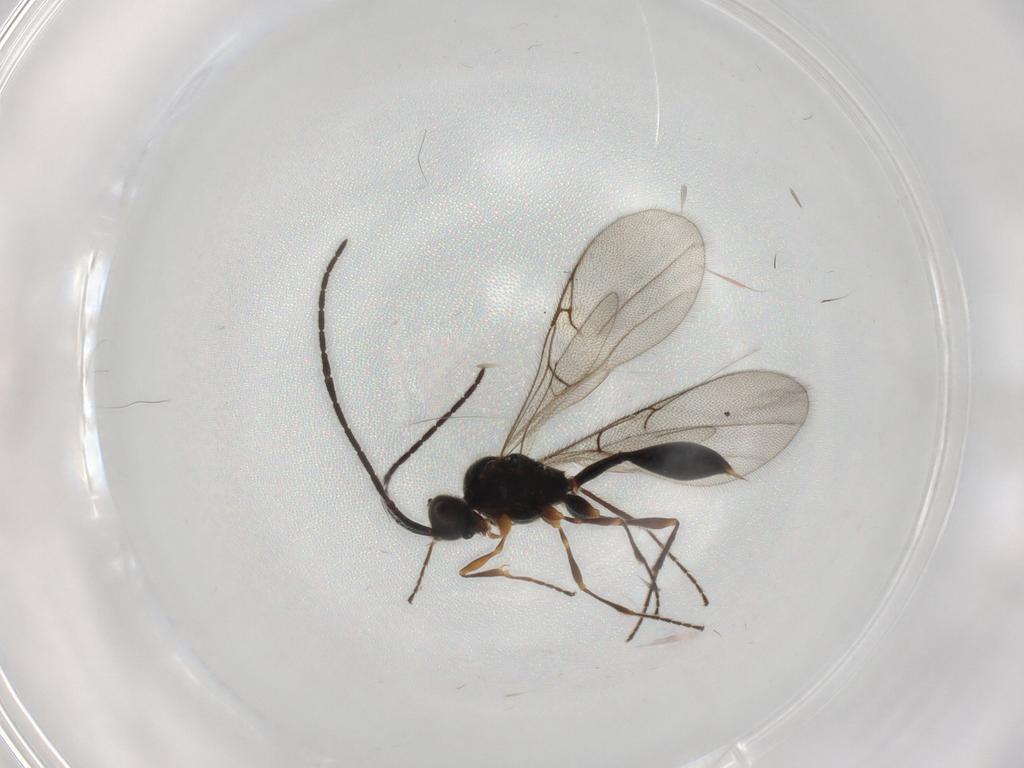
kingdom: Animalia
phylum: Arthropoda
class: Insecta
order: Hymenoptera
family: Diapriidae
